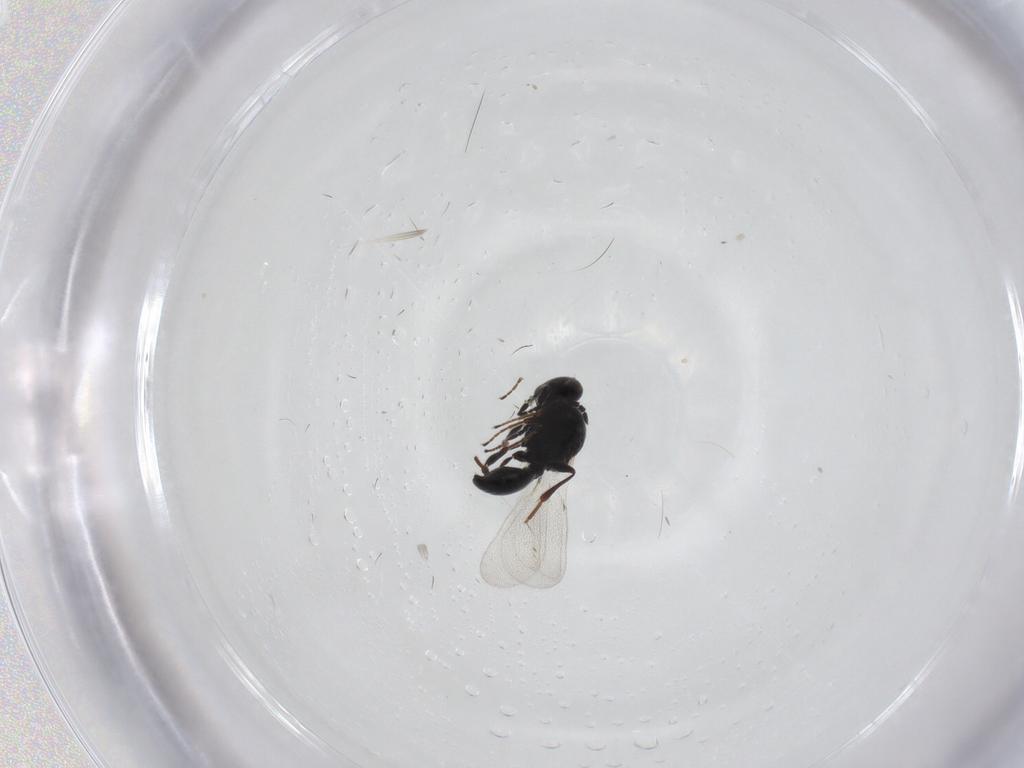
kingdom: Animalia
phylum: Arthropoda
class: Insecta
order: Hymenoptera
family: Platygastridae
